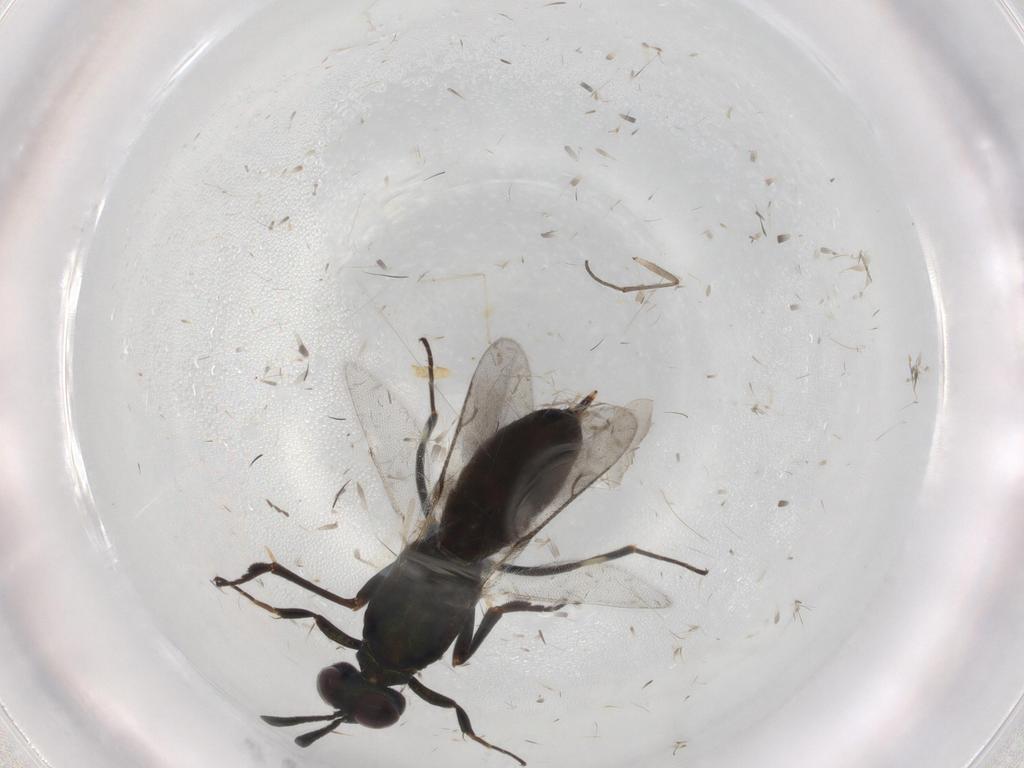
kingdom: Animalia
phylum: Arthropoda
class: Insecta
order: Hymenoptera
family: Eupelmidae
